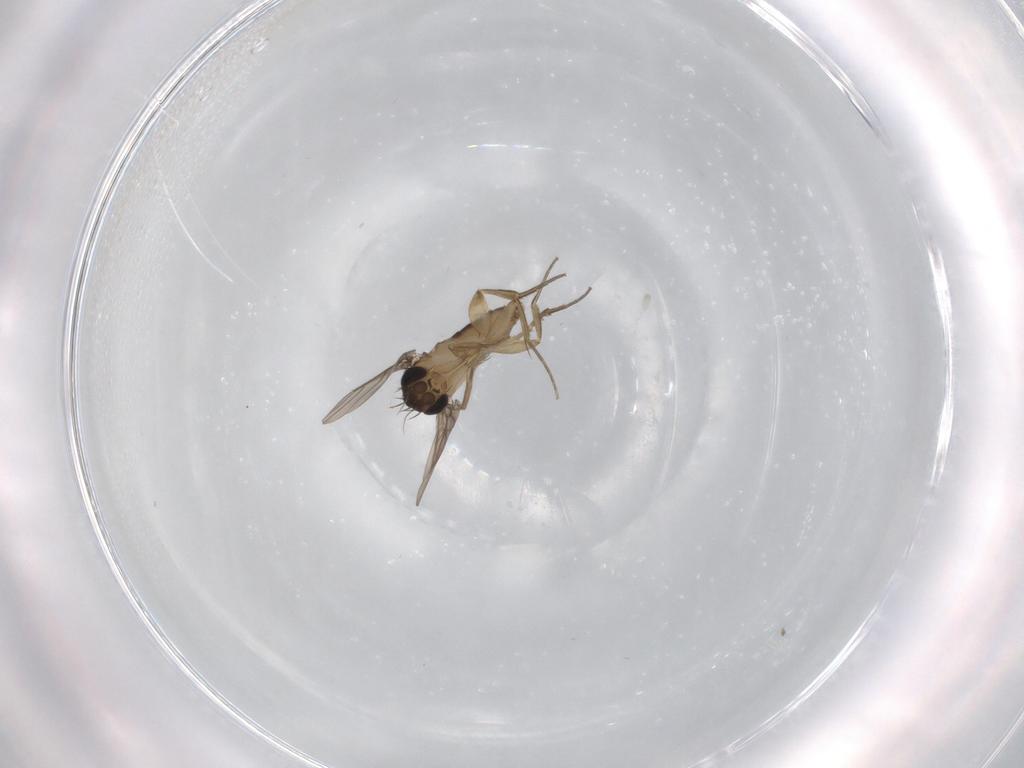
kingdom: Animalia
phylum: Arthropoda
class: Insecta
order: Diptera
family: Phoridae
